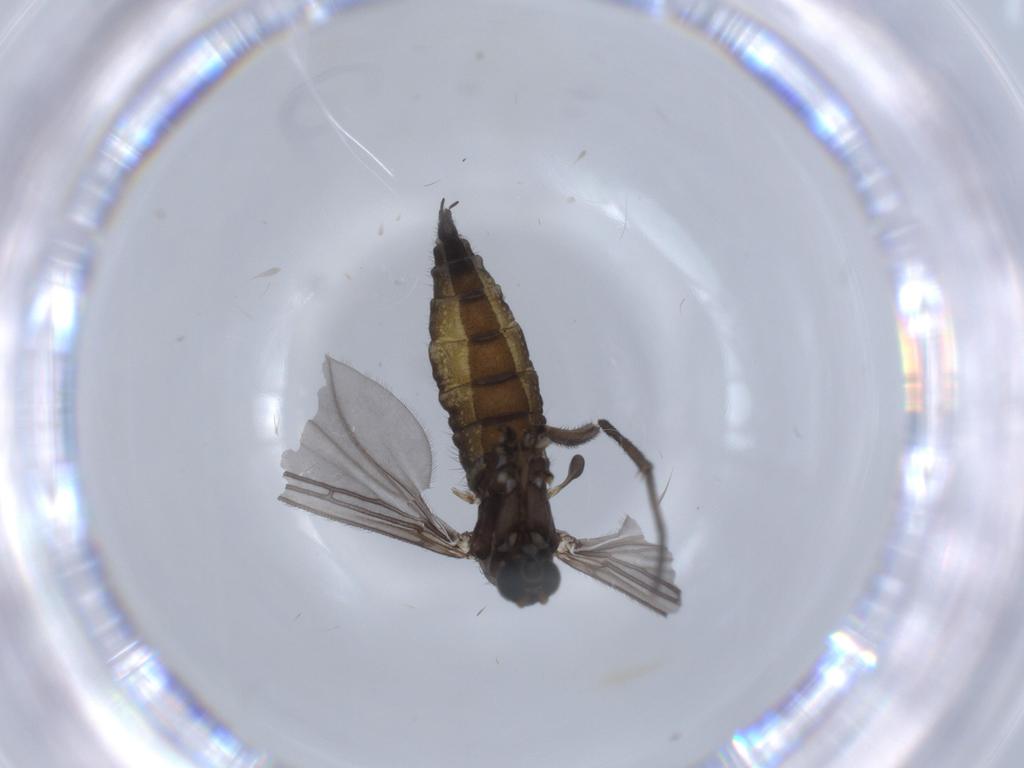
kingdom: Animalia
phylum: Arthropoda
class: Insecta
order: Diptera
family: Sciaridae
